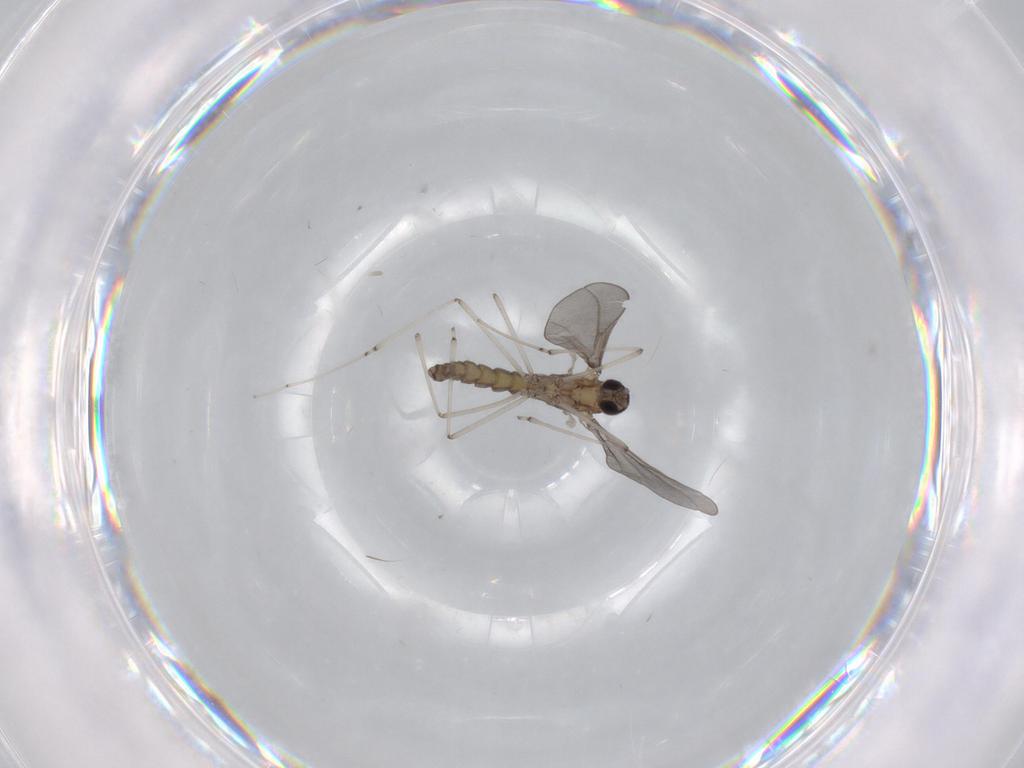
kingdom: Animalia
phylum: Arthropoda
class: Insecta
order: Diptera
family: Cecidomyiidae
